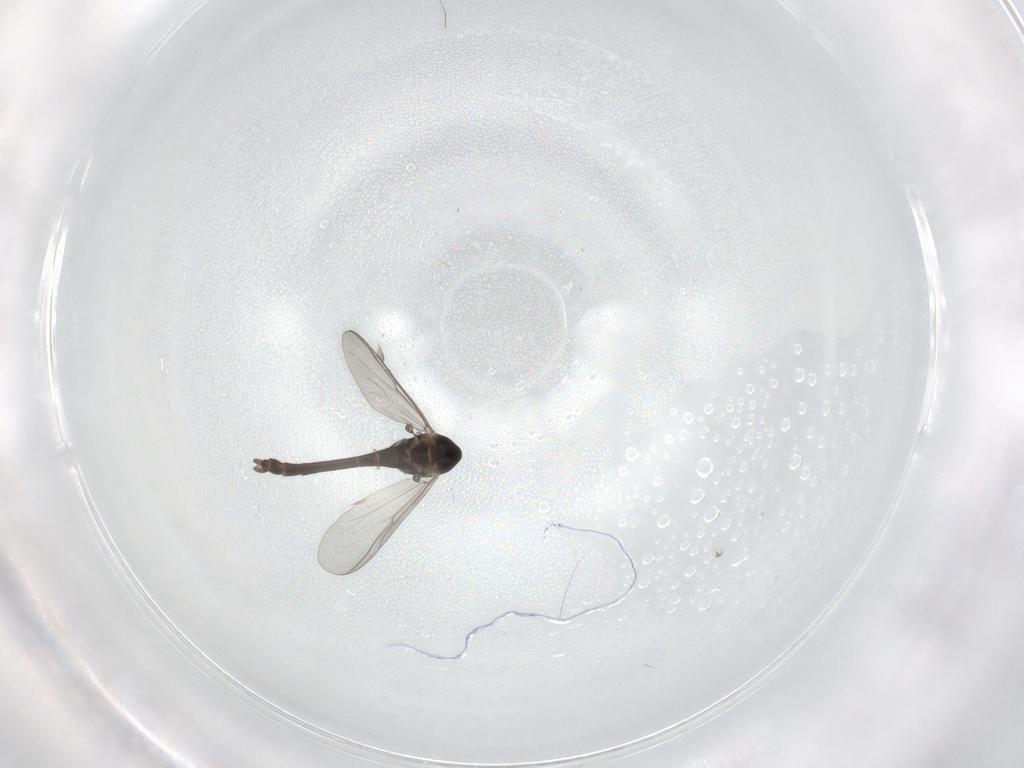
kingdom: Animalia
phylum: Arthropoda
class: Insecta
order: Diptera
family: Chironomidae
